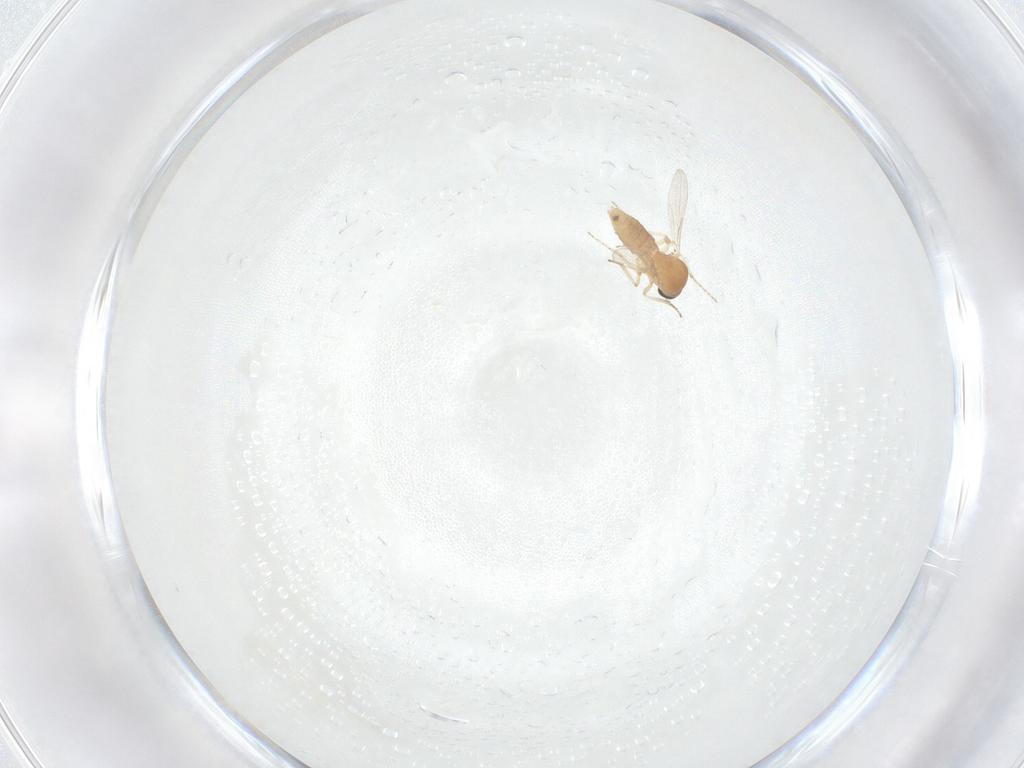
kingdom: Animalia
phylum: Arthropoda
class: Insecta
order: Diptera
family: Ceratopogonidae
